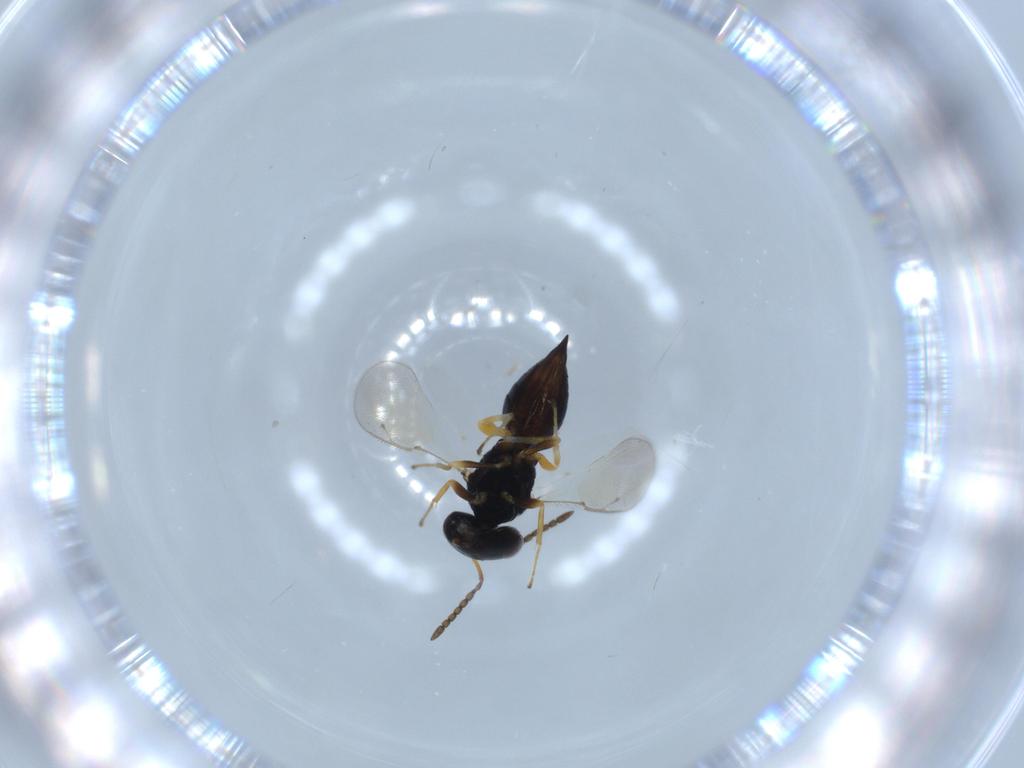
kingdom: Animalia
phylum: Arthropoda
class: Insecta
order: Hymenoptera
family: Pteromalidae
